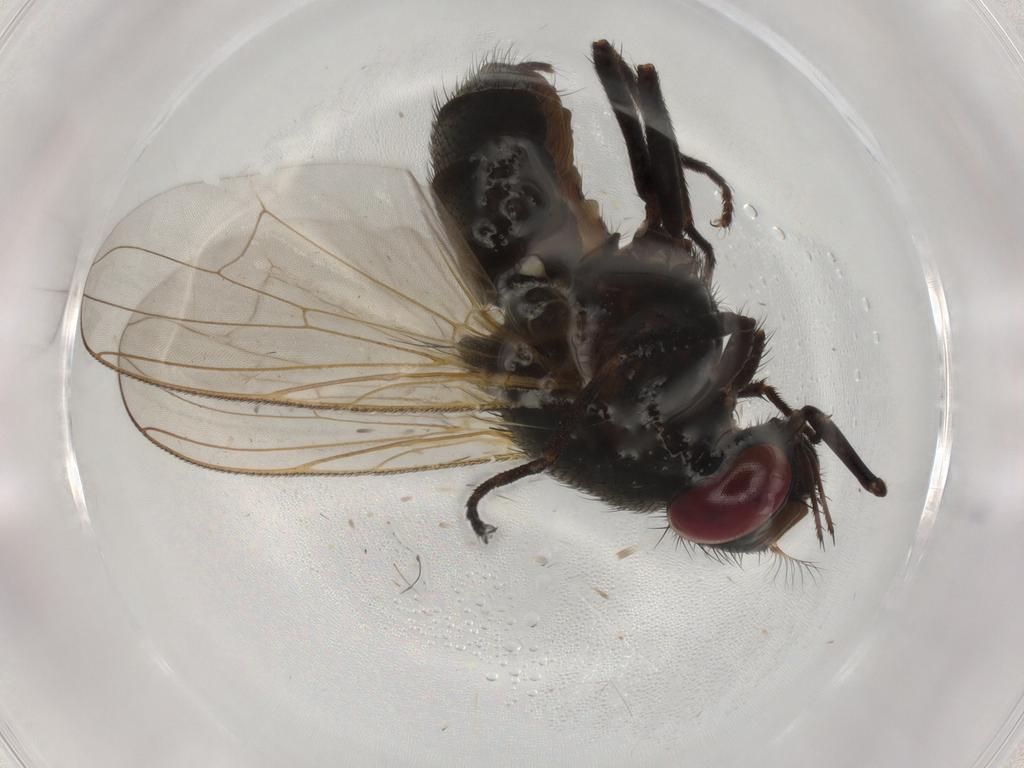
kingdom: Animalia
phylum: Arthropoda
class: Insecta
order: Diptera
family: Muscidae
